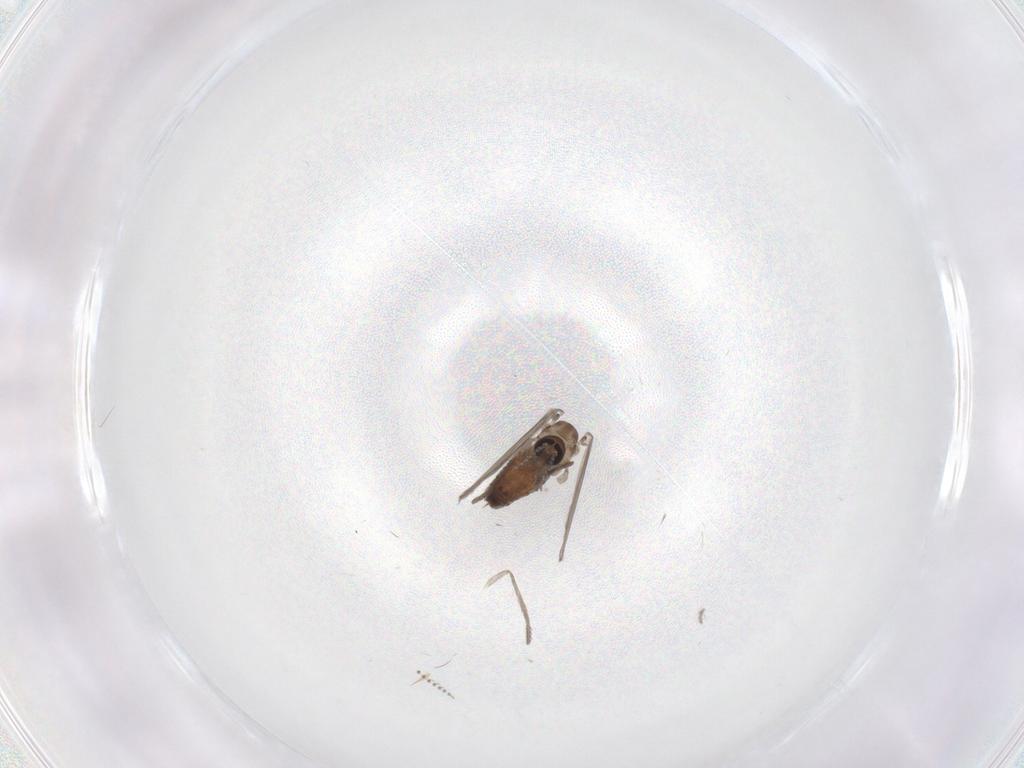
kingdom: Animalia
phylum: Arthropoda
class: Insecta
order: Diptera
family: Psychodidae
